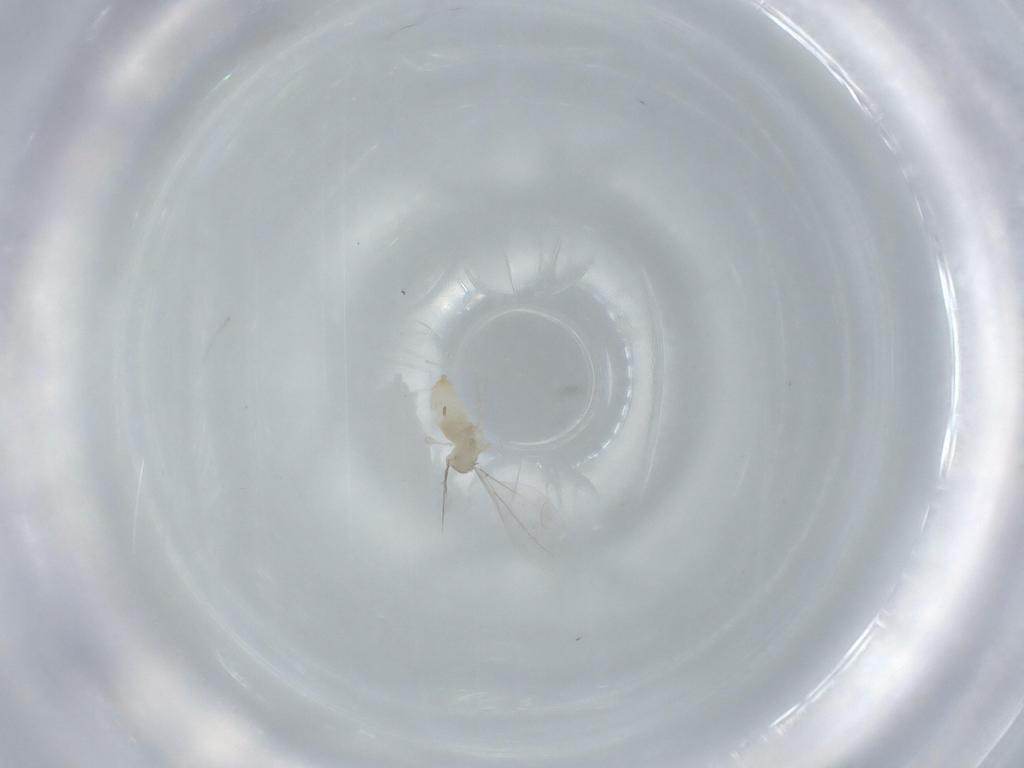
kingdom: Animalia
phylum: Arthropoda
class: Insecta
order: Diptera
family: Cecidomyiidae
